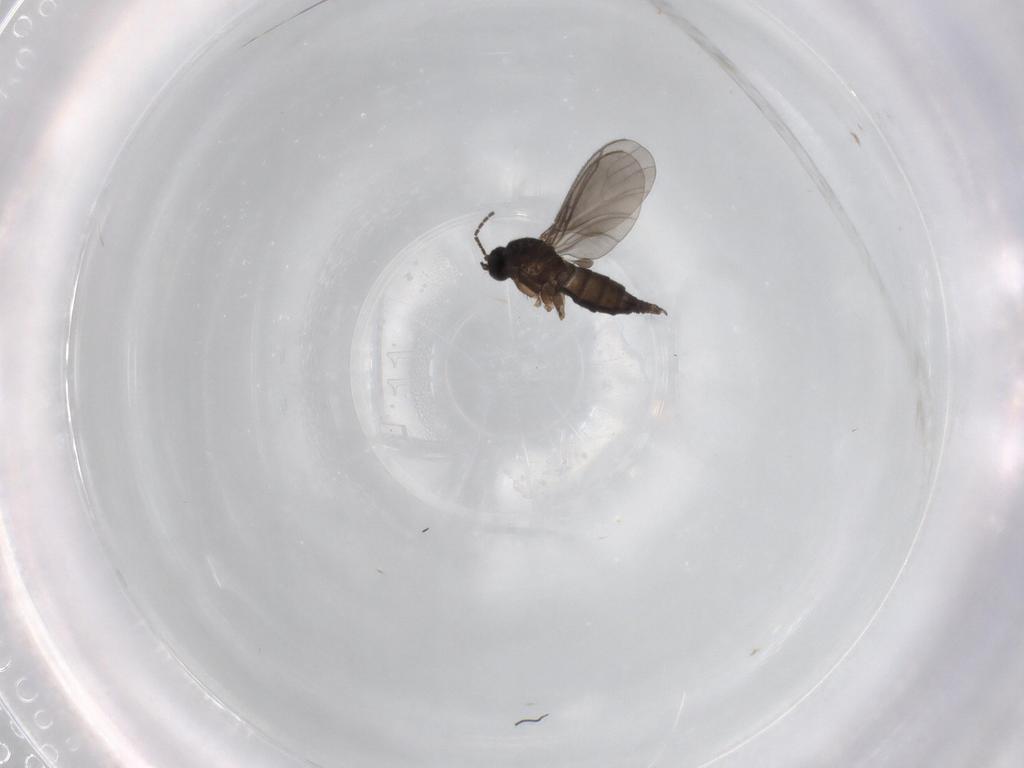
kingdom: Animalia
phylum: Arthropoda
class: Insecta
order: Diptera
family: Sciaridae
